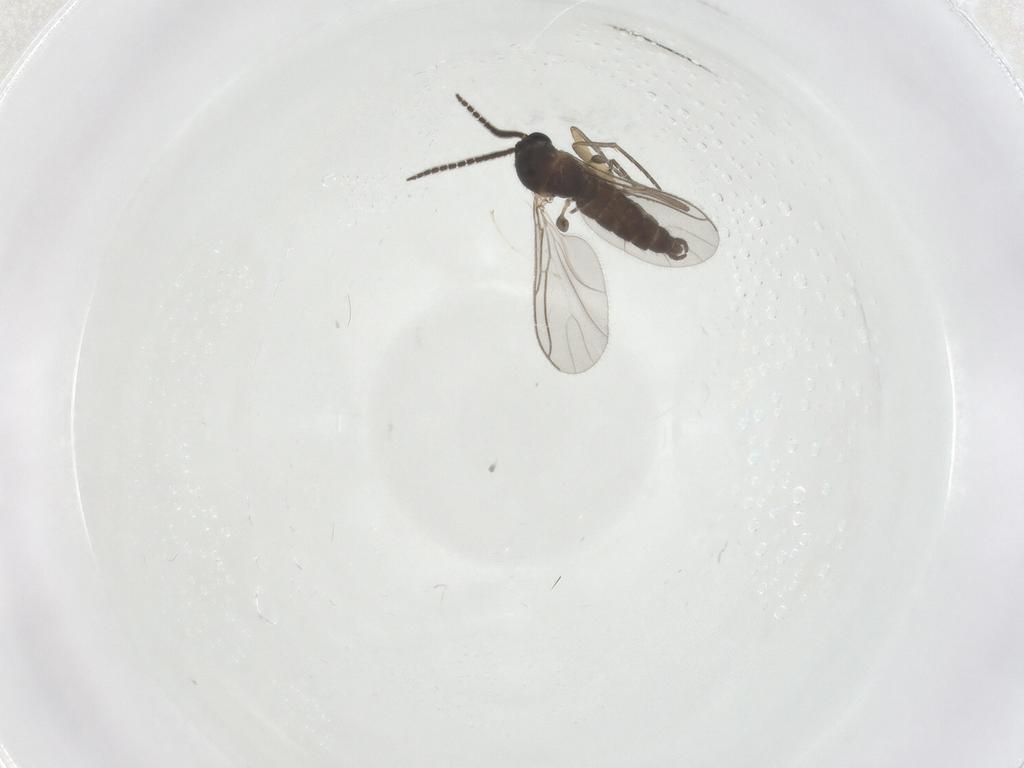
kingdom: Animalia
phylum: Arthropoda
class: Insecta
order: Diptera
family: Sciaridae
